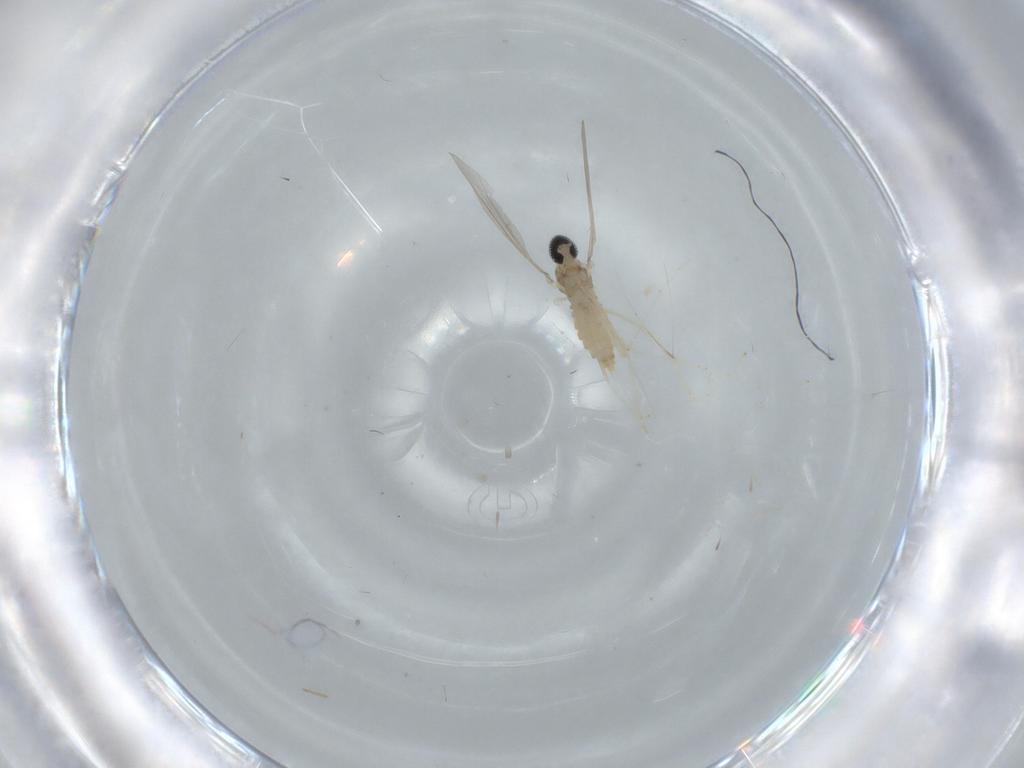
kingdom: Animalia
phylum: Arthropoda
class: Insecta
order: Diptera
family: Cecidomyiidae
